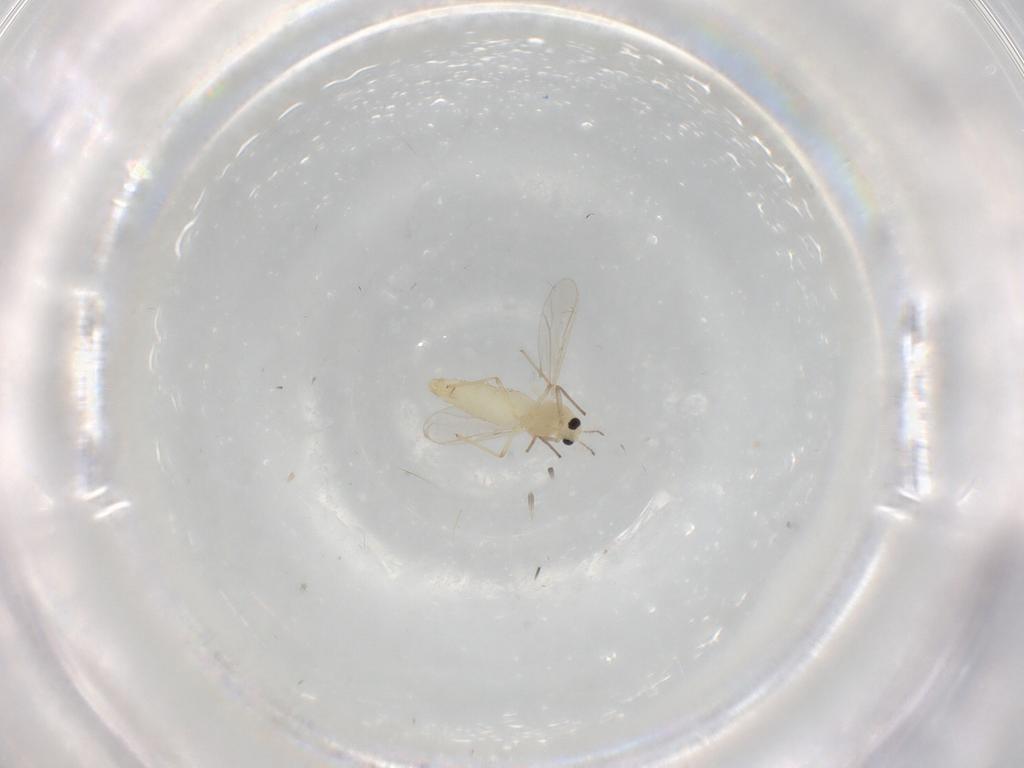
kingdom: Animalia
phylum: Arthropoda
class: Insecta
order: Diptera
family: Chironomidae
